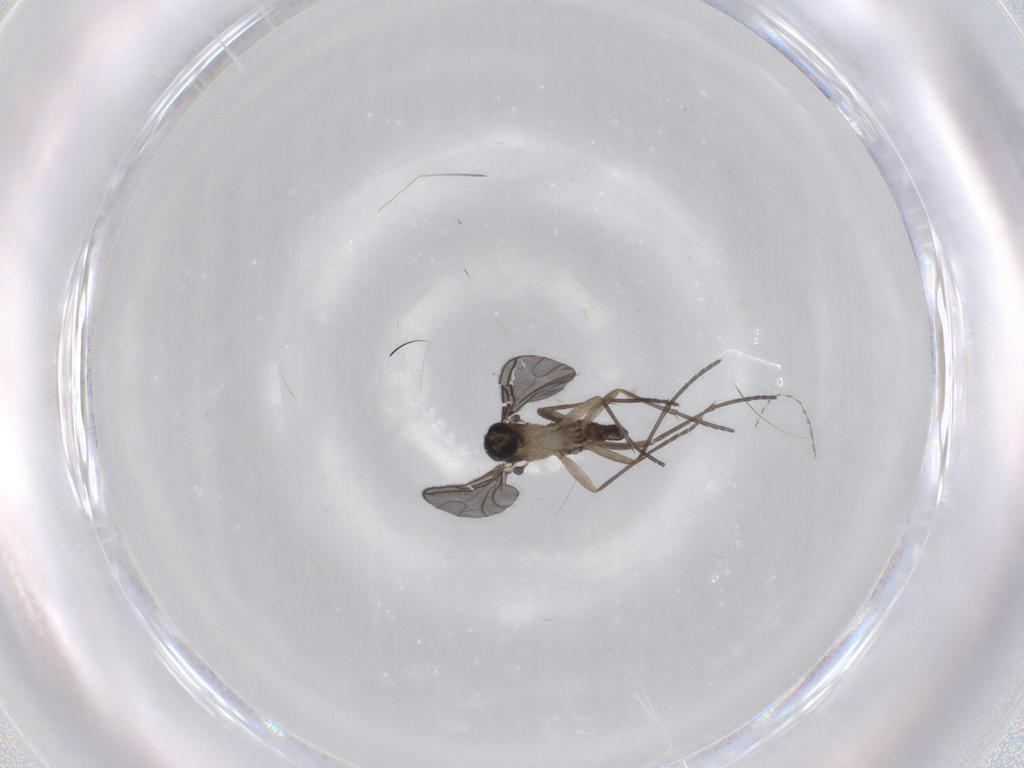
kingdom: Animalia
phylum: Arthropoda
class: Insecta
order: Diptera
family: Sciaridae
